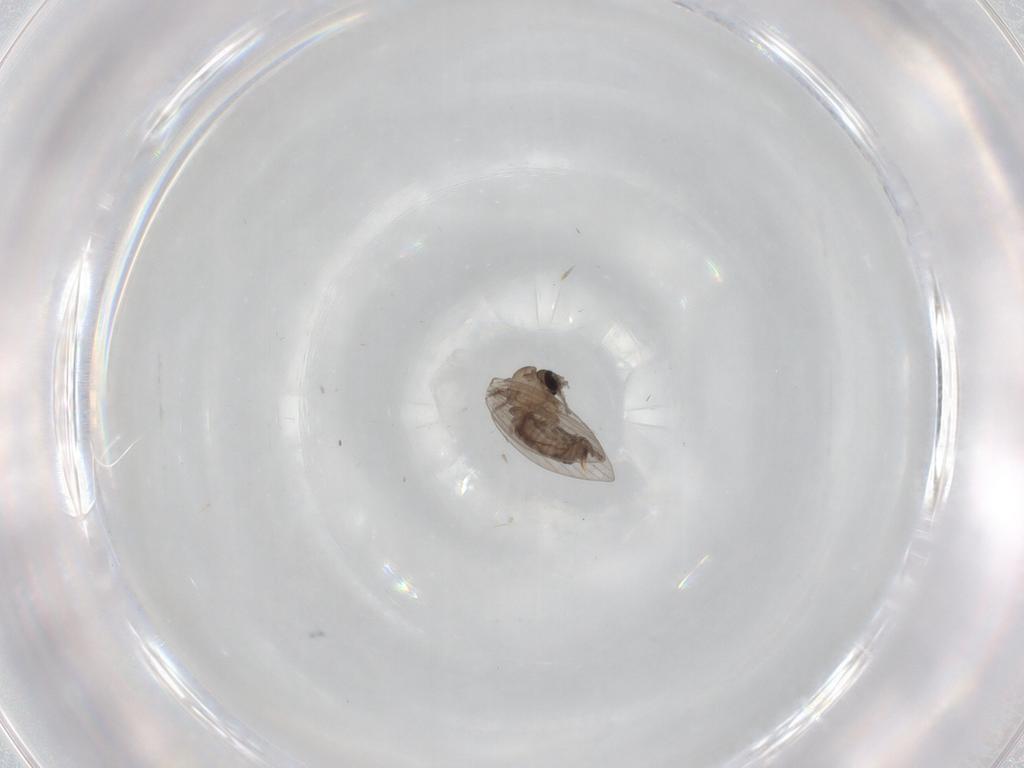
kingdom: Animalia
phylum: Arthropoda
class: Insecta
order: Diptera
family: Psychodidae
